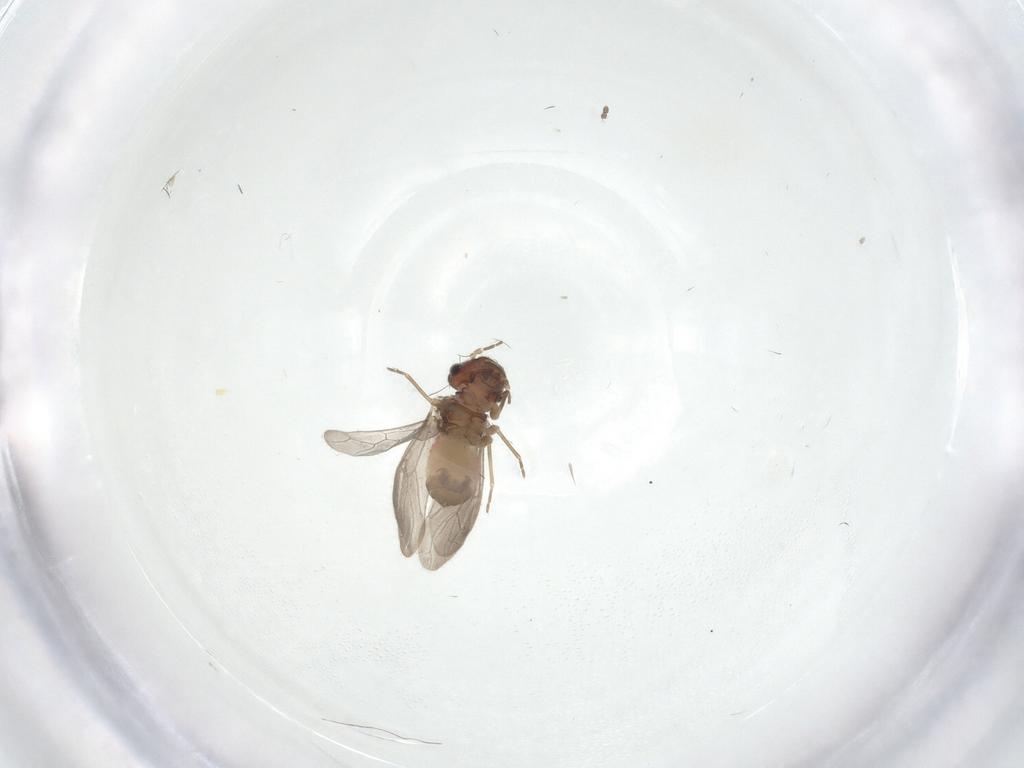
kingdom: Animalia
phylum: Arthropoda
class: Insecta
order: Psocodea
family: Asiopsocidae
